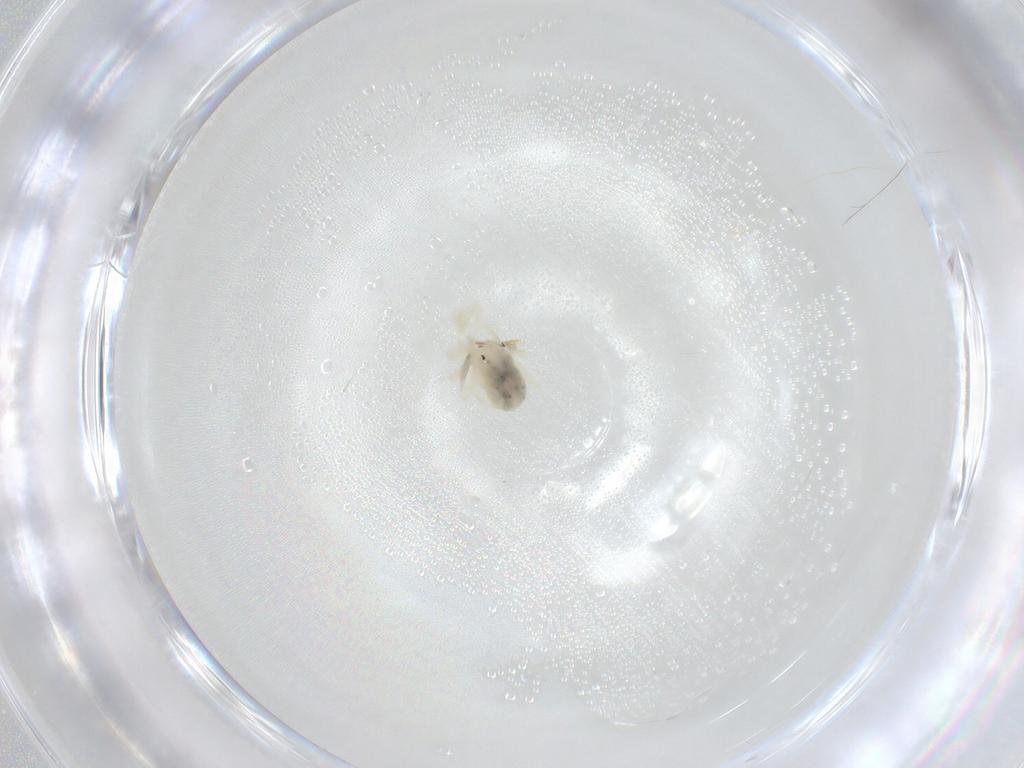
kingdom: Animalia
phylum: Arthropoda
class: Arachnida
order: Trombidiformes
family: Anystidae
